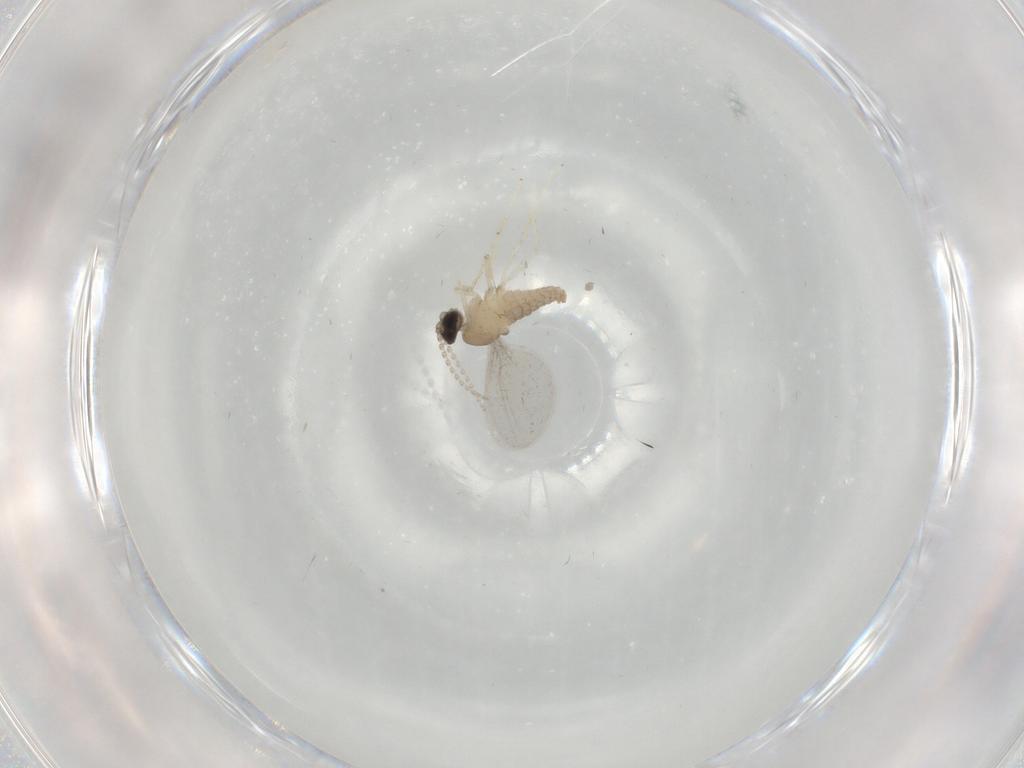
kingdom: Animalia
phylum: Arthropoda
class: Insecta
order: Diptera
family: Cecidomyiidae
